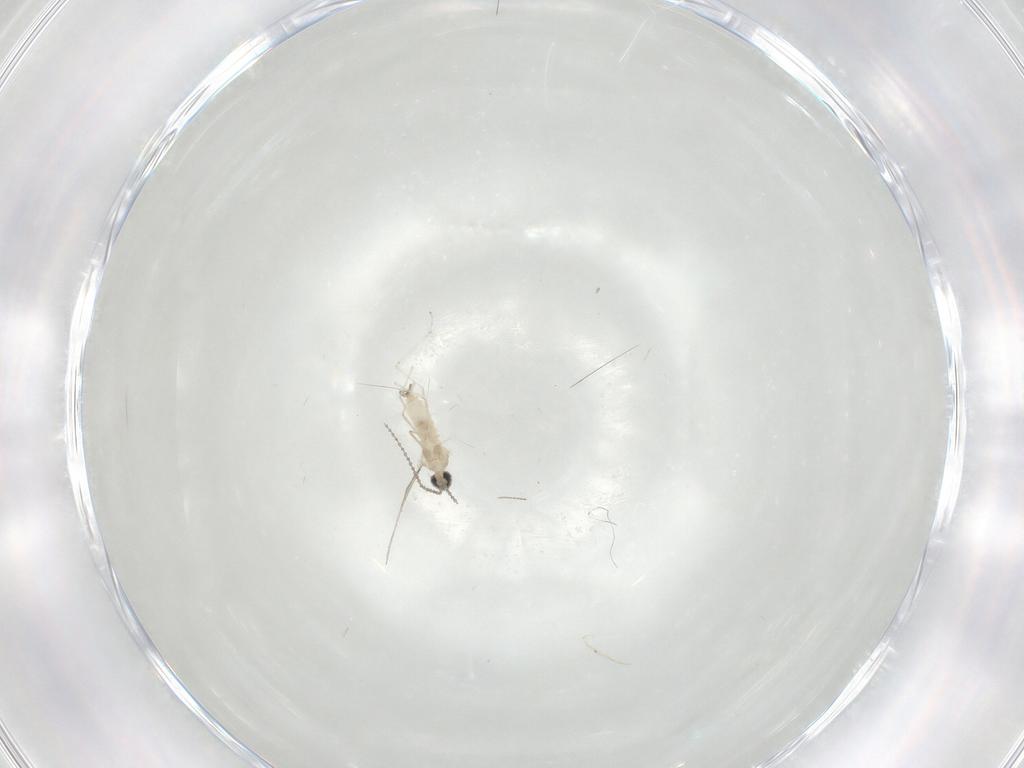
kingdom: Animalia
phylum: Arthropoda
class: Insecta
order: Diptera
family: Cecidomyiidae
